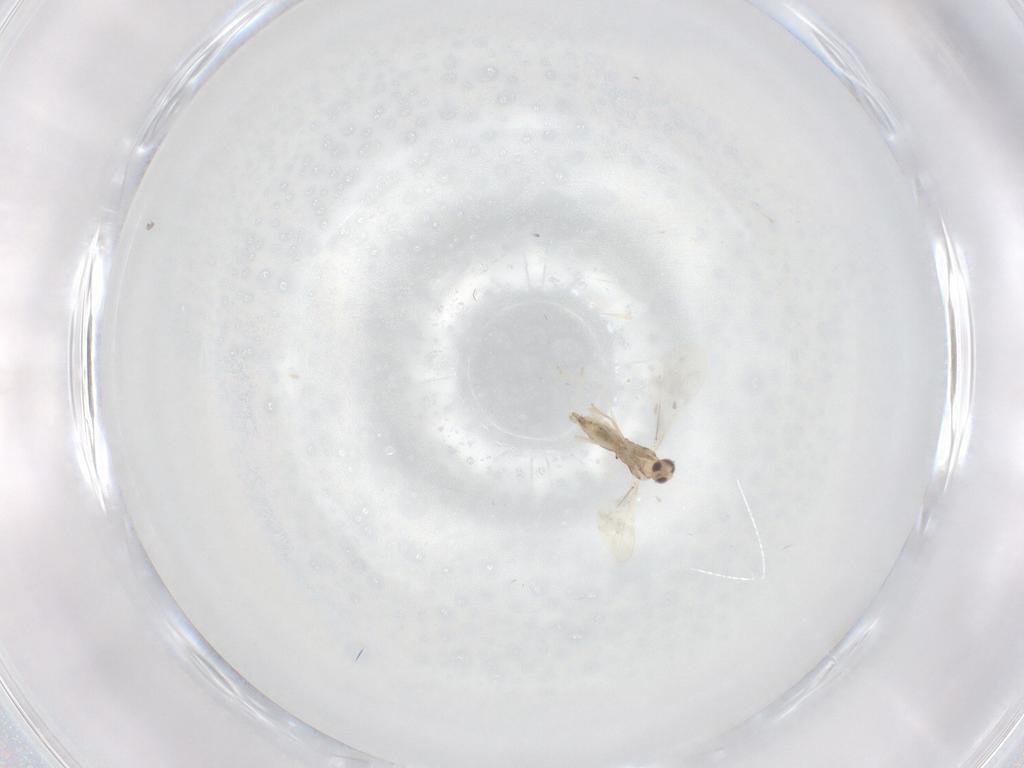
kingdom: Animalia
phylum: Arthropoda
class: Insecta
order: Diptera
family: Cecidomyiidae
